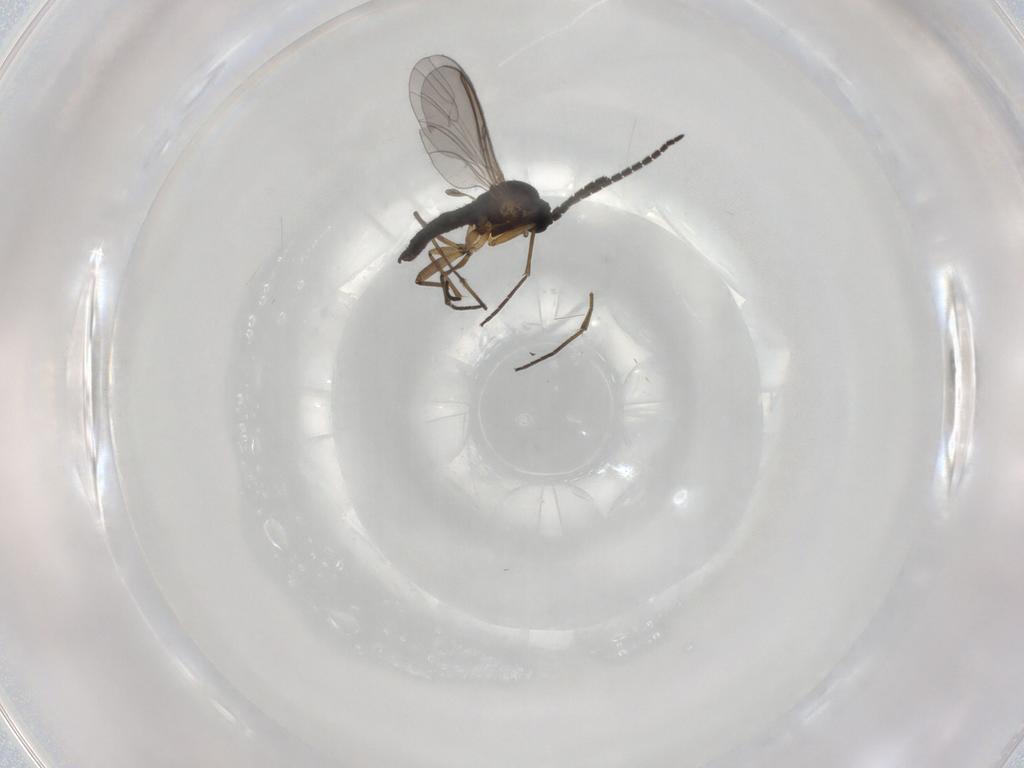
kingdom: Animalia
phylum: Arthropoda
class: Insecta
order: Diptera
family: Sciaridae
